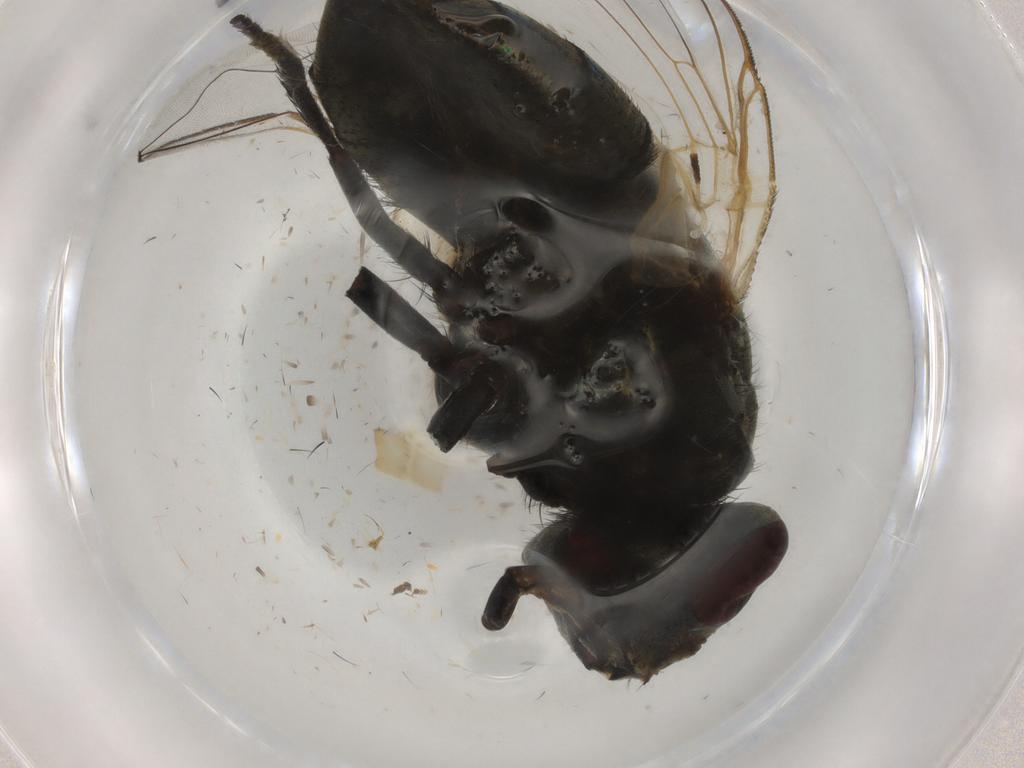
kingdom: Animalia
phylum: Arthropoda
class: Insecta
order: Diptera
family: Muscidae
